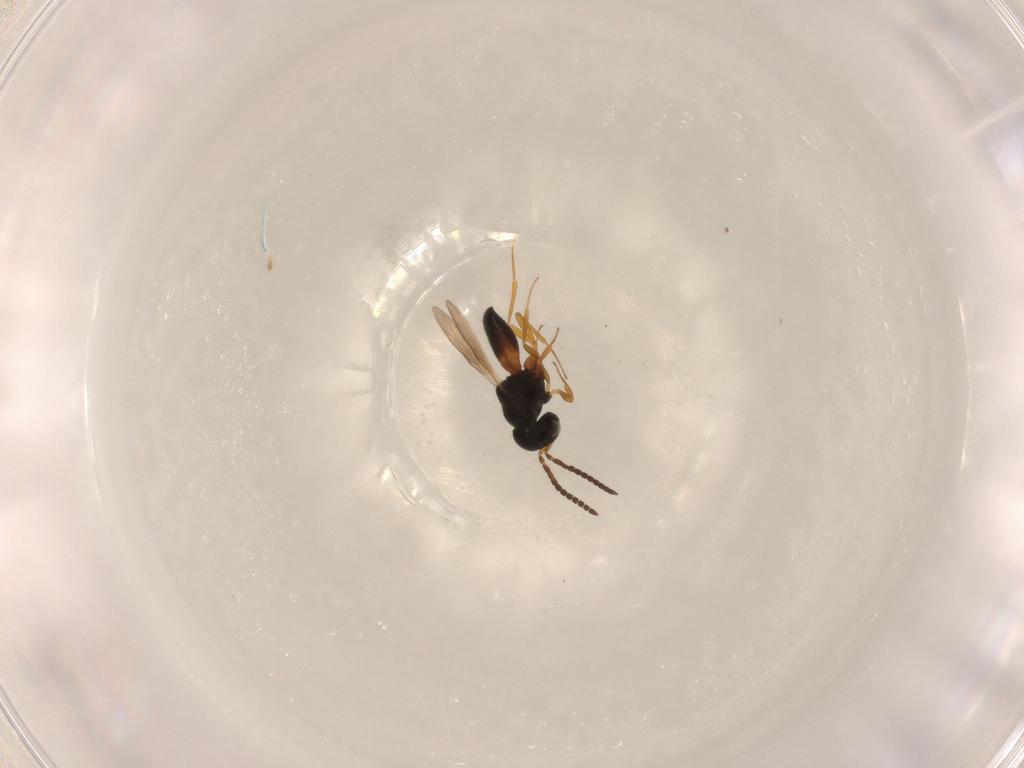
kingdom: Animalia
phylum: Arthropoda
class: Insecta
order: Hymenoptera
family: Scelionidae
